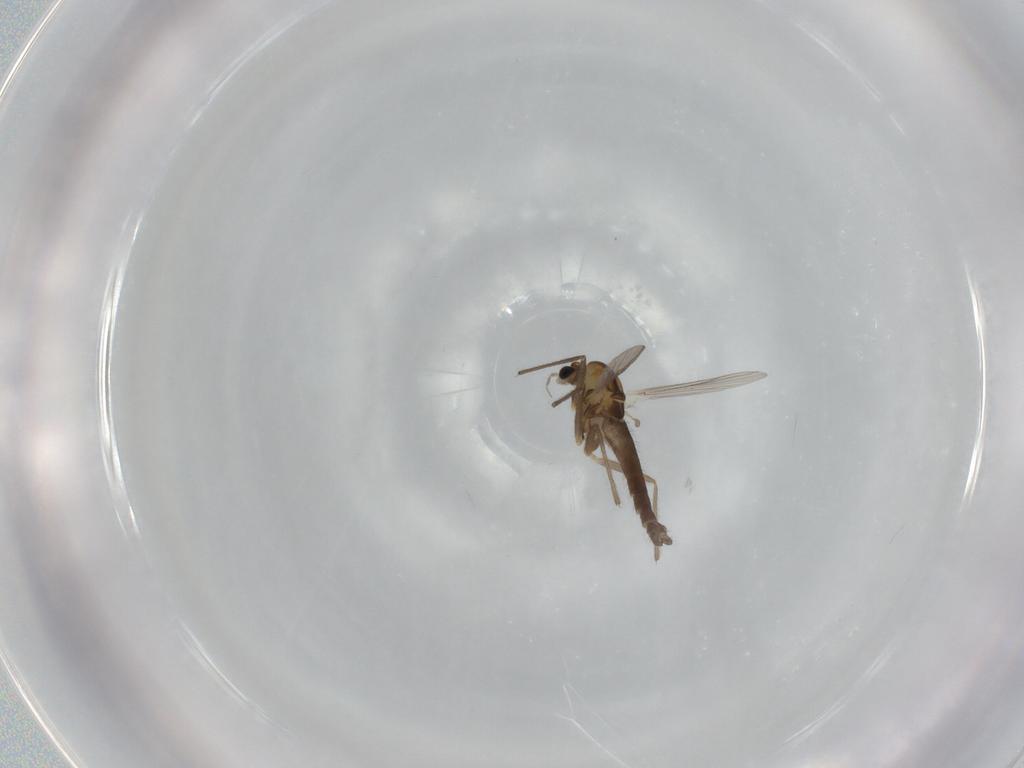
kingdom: Animalia
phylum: Arthropoda
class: Insecta
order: Diptera
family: Chironomidae
